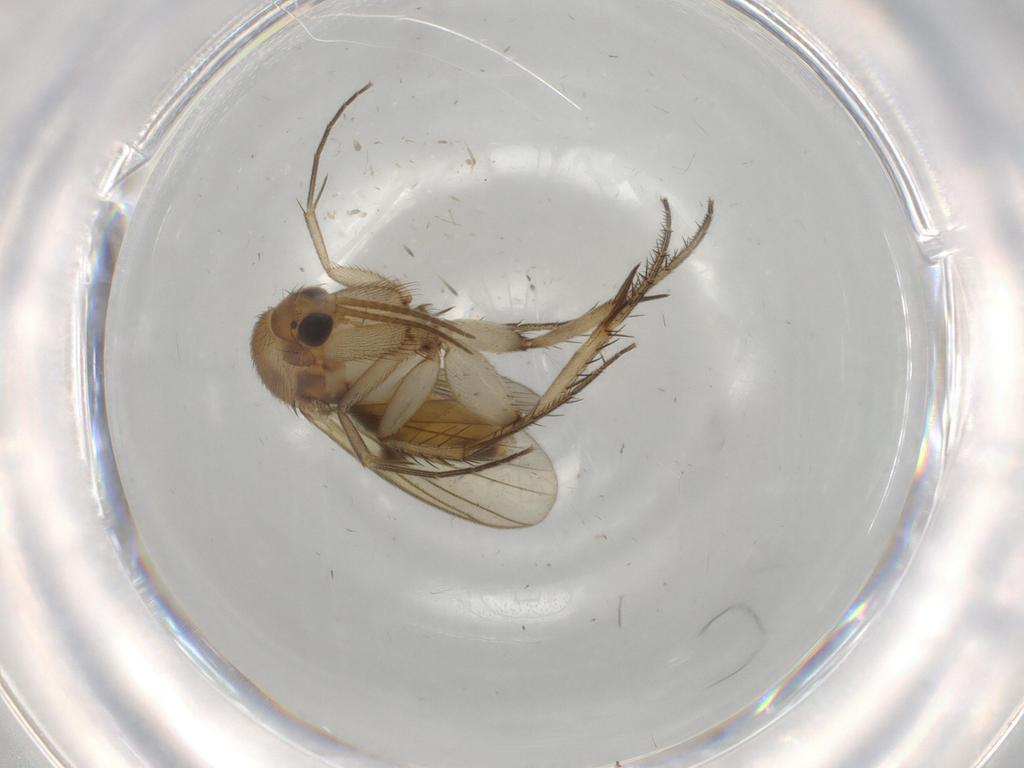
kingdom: Animalia
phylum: Arthropoda
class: Insecta
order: Diptera
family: Mycetophilidae
